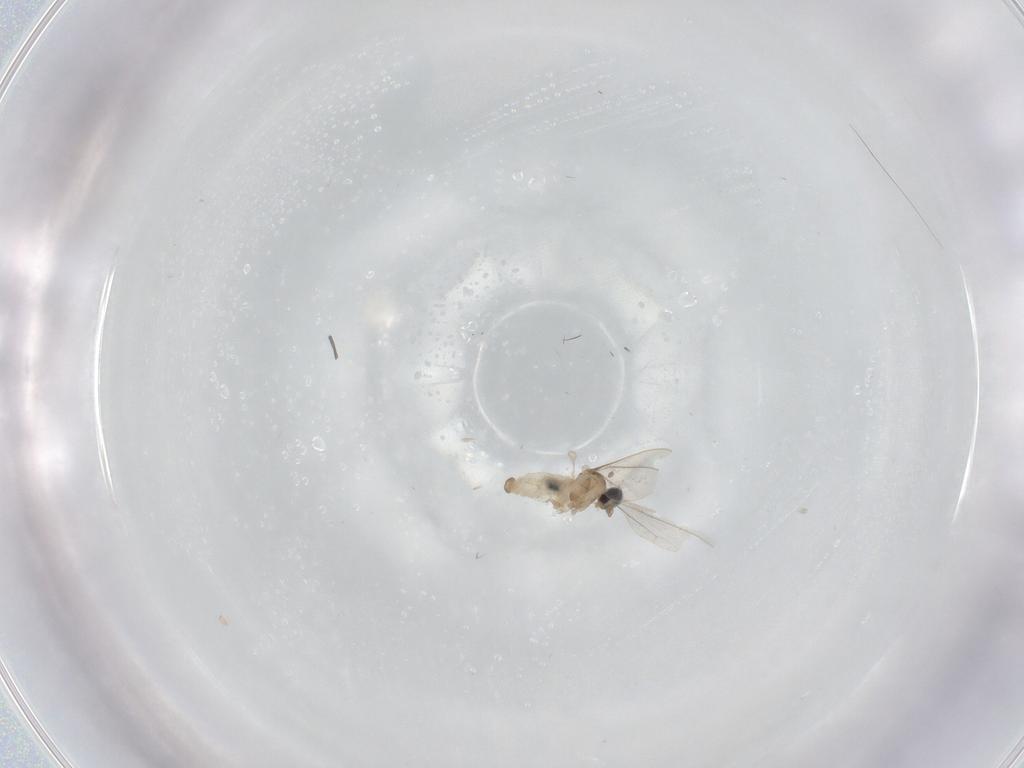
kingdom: Animalia
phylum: Arthropoda
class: Insecta
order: Diptera
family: Cecidomyiidae
